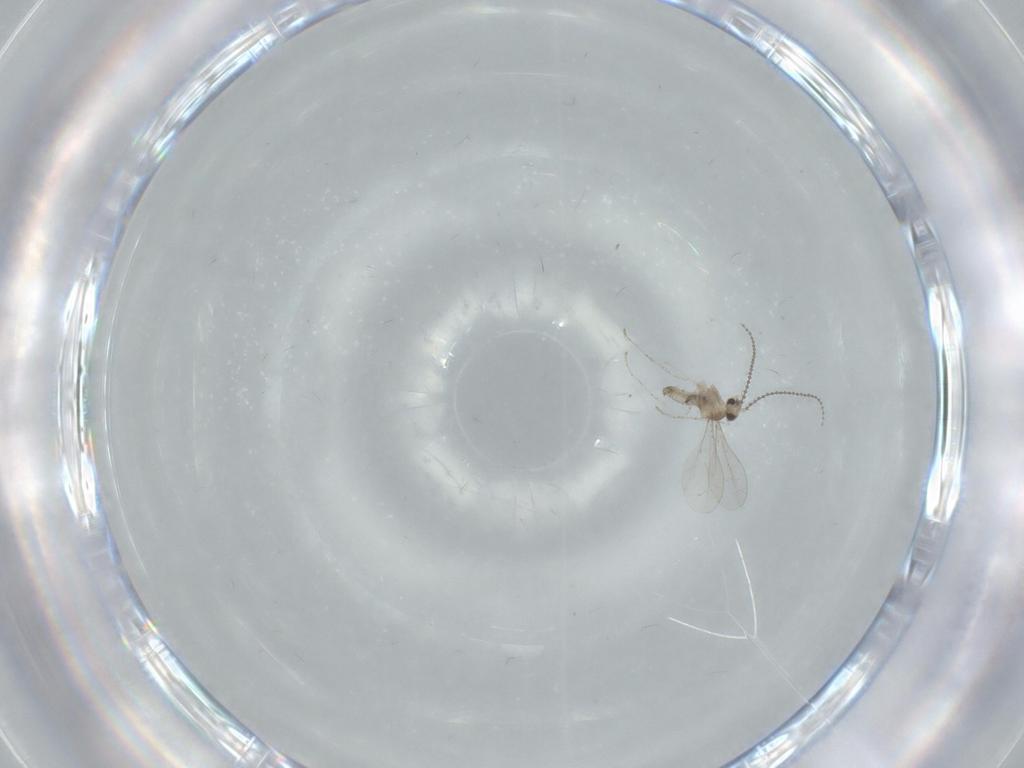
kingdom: Animalia
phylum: Arthropoda
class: Insecta
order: Diptera
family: Cecidomyiidae
